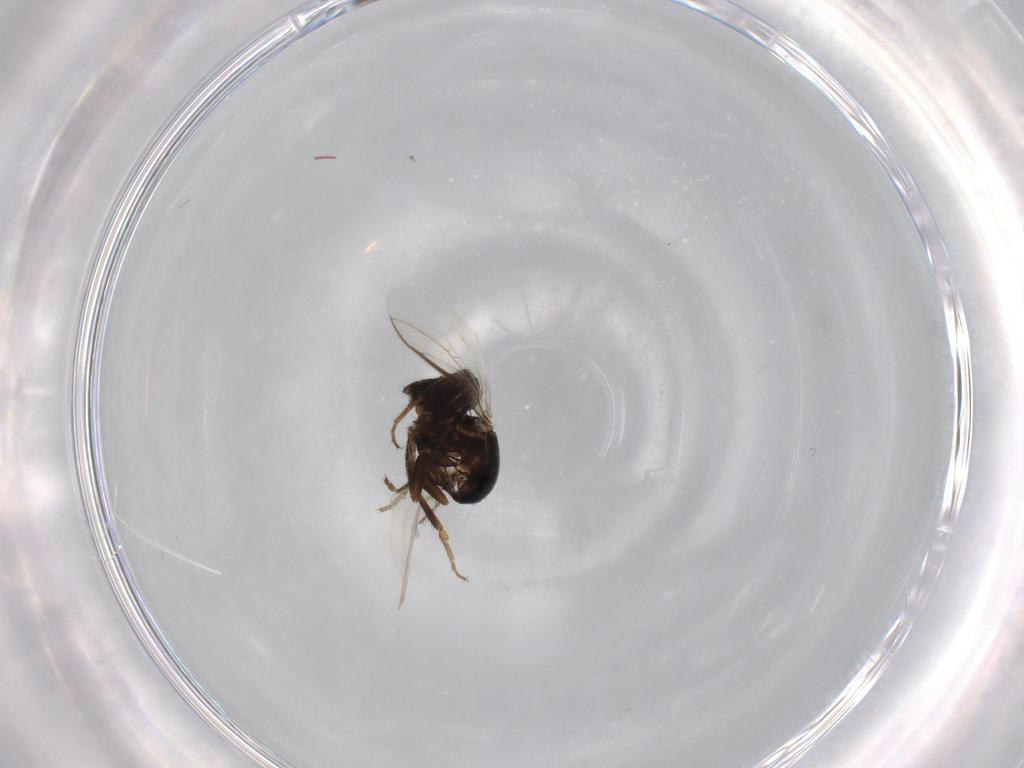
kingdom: Animalia
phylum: Arthropoda
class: Insecta
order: Diptera
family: Sphaeroceridae
